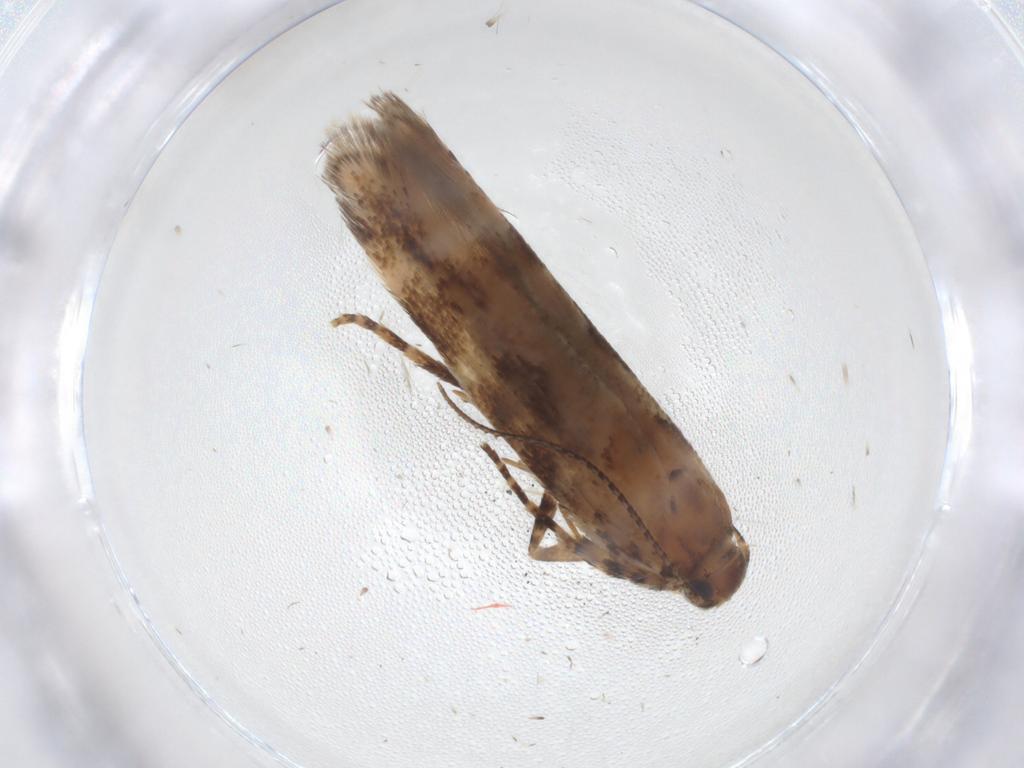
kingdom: Animalia
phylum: Arthropoda
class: Insecta
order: Lepidoptera
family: Gelechiidae
